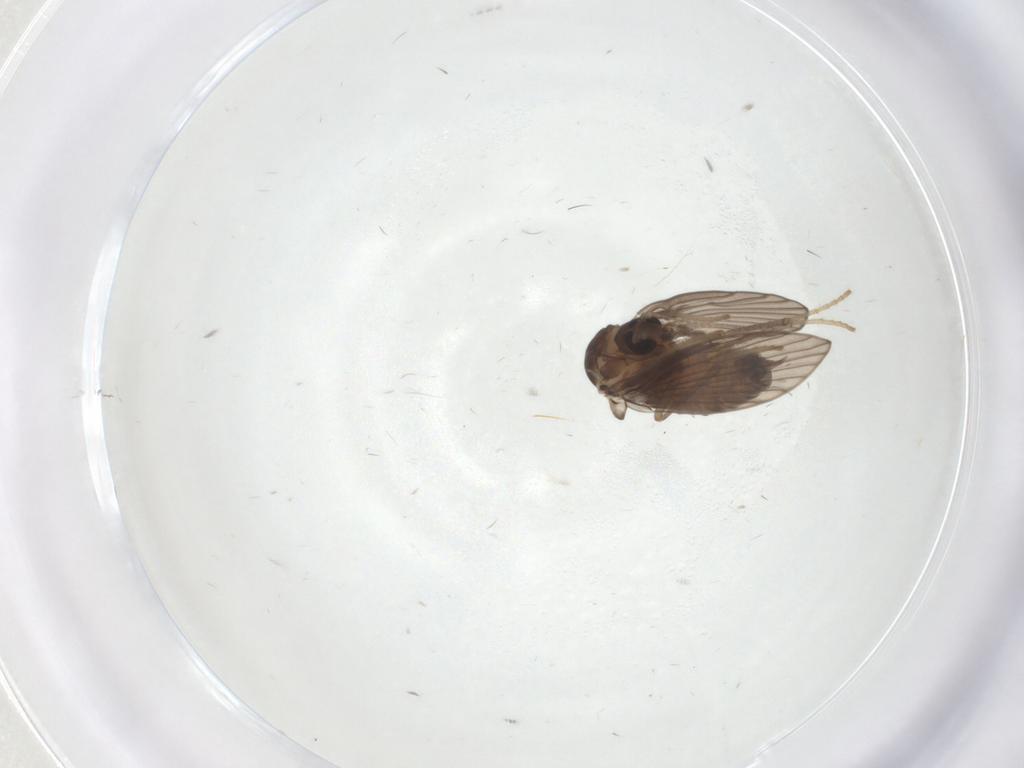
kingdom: Animalia
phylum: Arthropoda
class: Insecta
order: Diptera
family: Psychodidae
